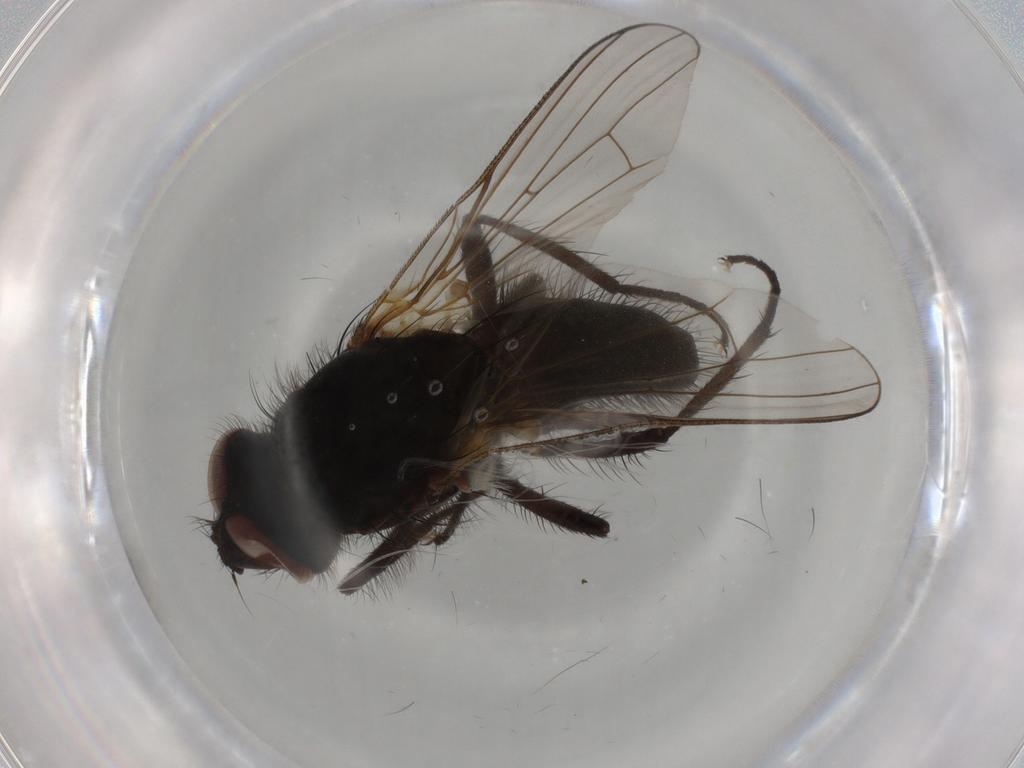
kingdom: Animalia
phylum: Arthropoda
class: Insecta
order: Diptera
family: Anthomyiidae
